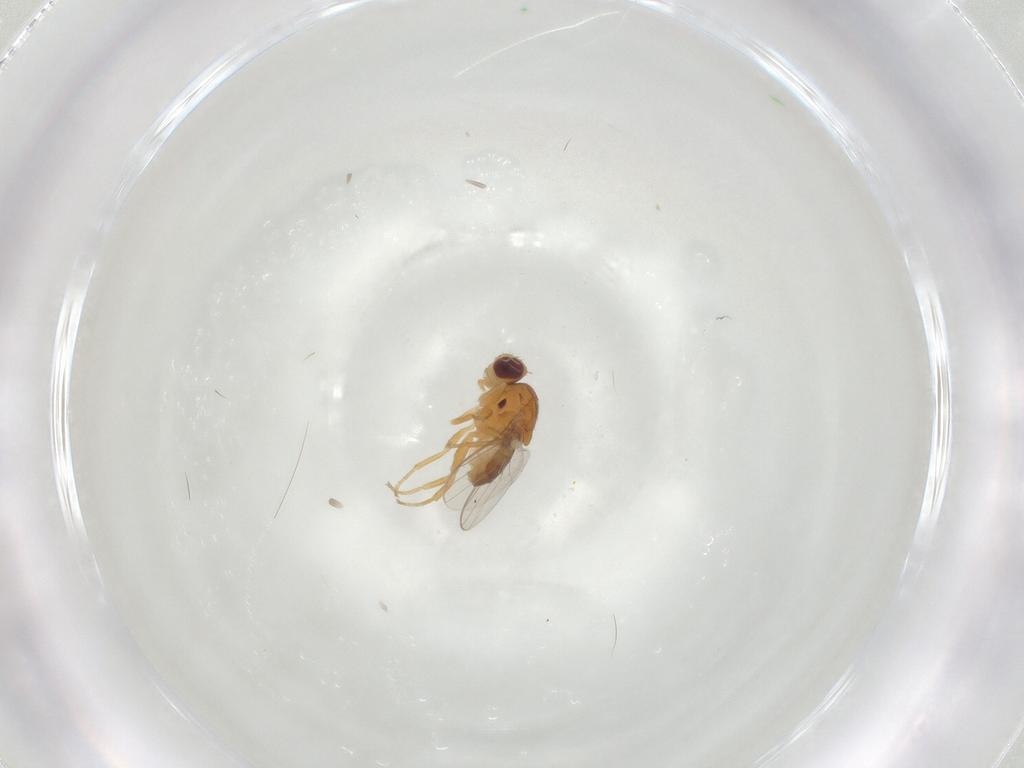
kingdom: Animalia
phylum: Arthropoda
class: Insecta
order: Diptera
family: Chloropidae
